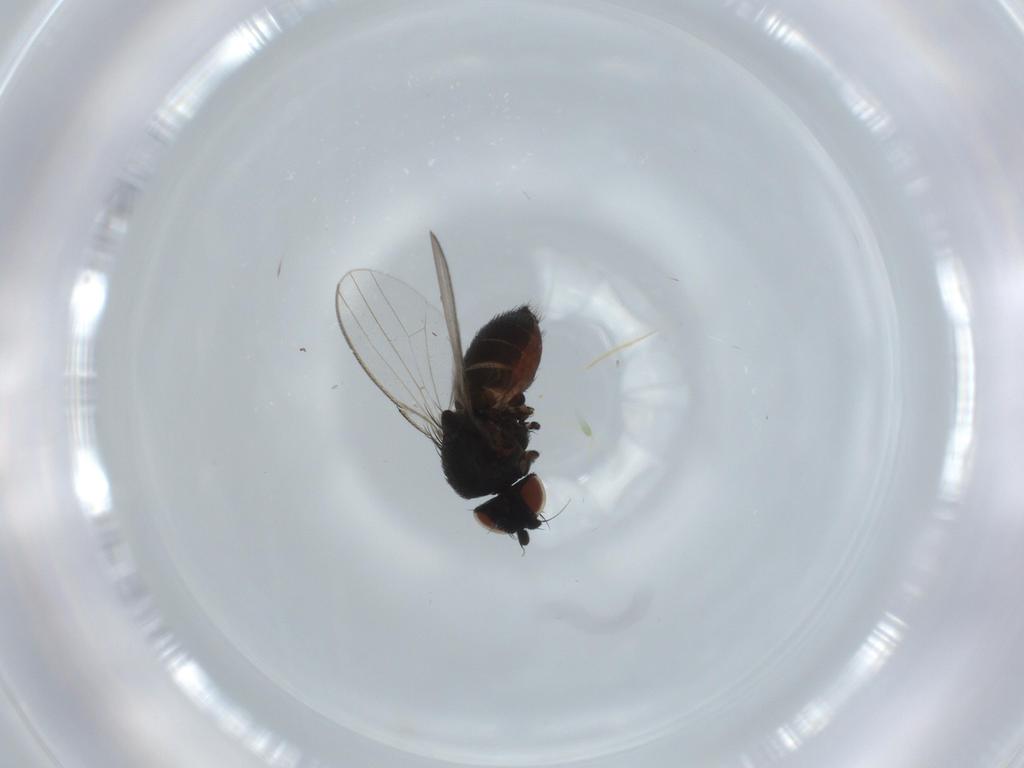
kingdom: Animalia
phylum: Arthropoda
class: Insecta
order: Diptera
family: Milichiidae
